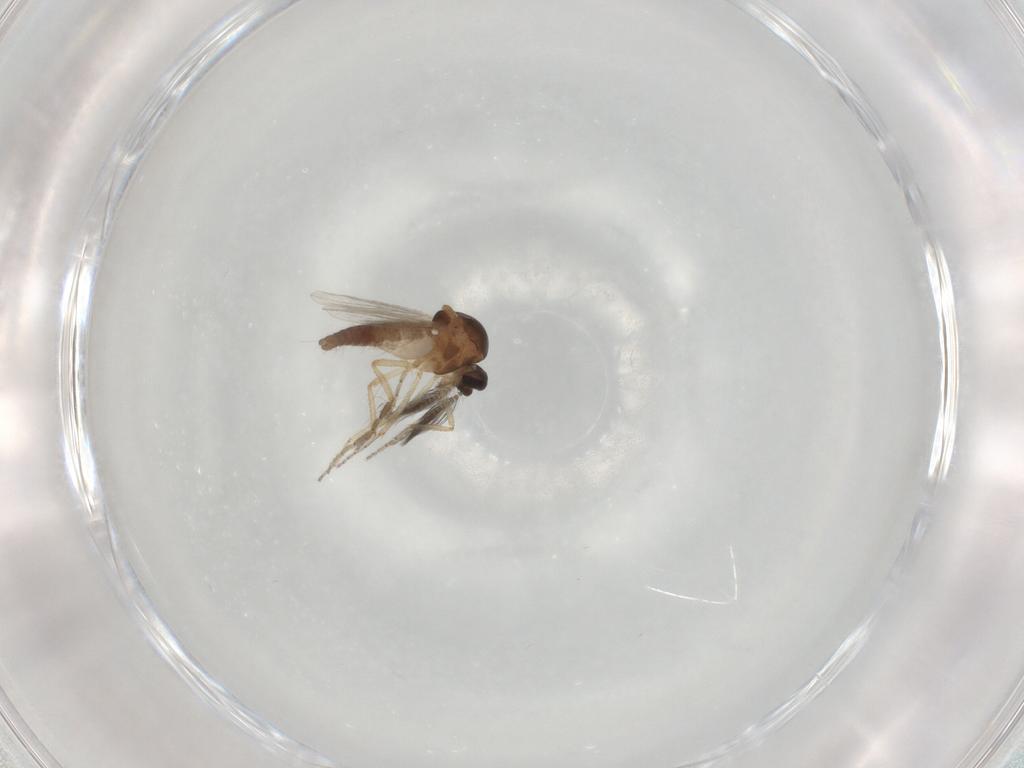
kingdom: Animalia
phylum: Arthropoda
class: Insecta
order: Diptera
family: Ceratopogonidae
